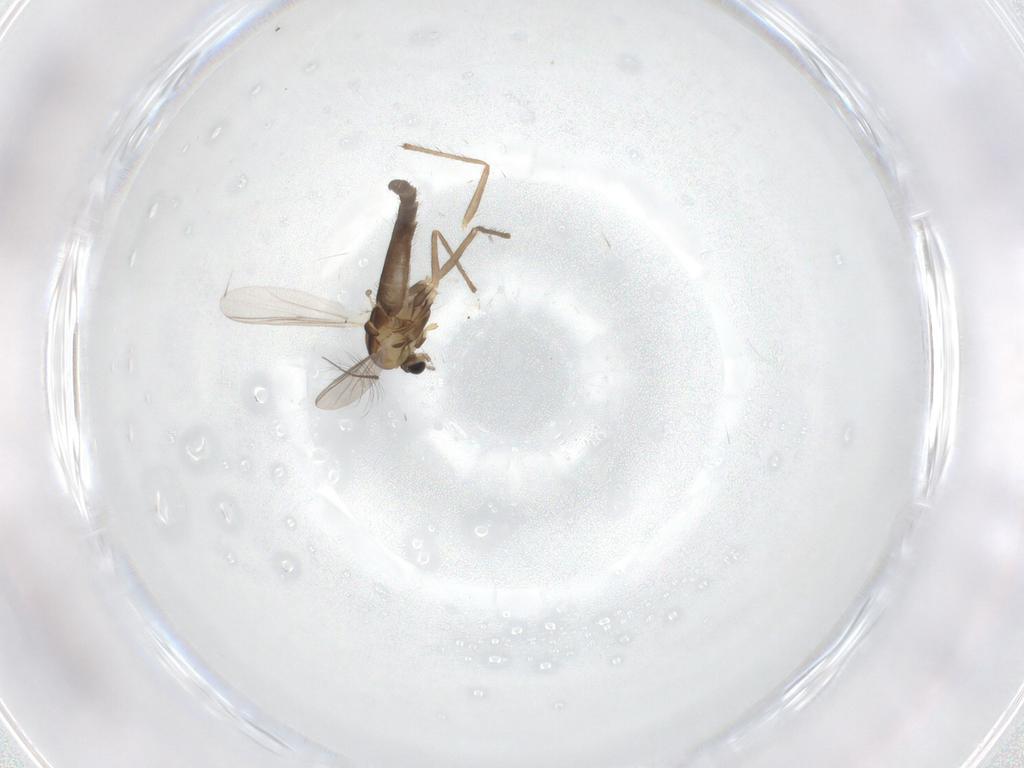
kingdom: Animalia
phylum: Arthropoda
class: Insecta
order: Diptera
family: Chironomidae
